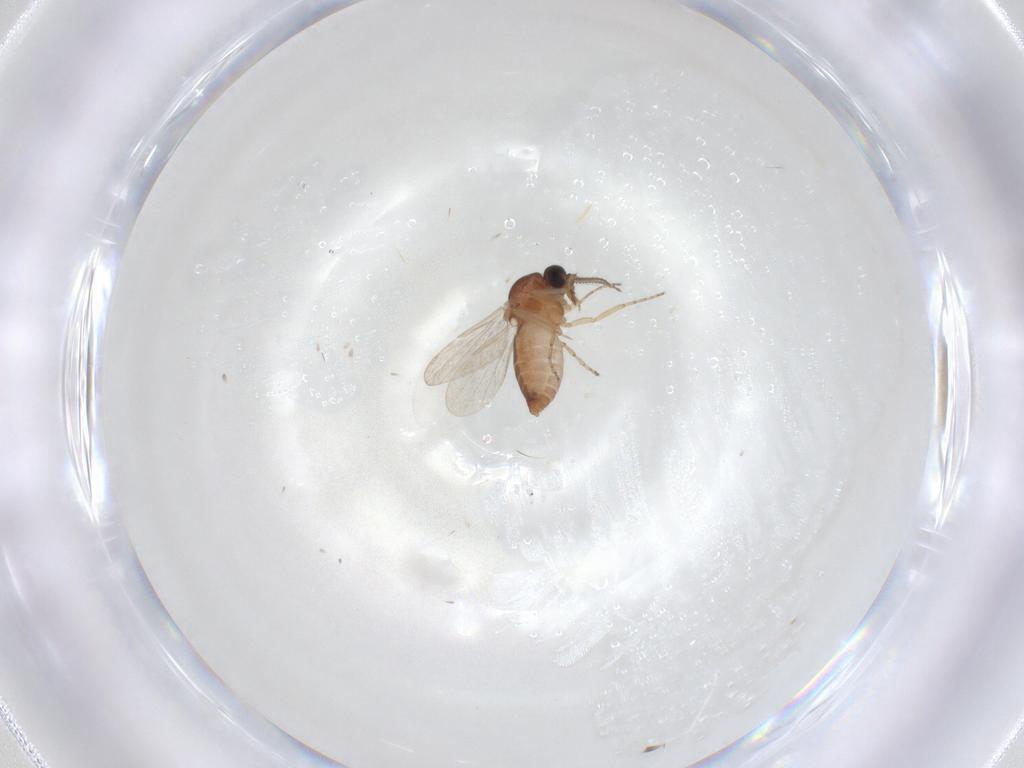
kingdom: Animalia
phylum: Arthropoda
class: Insecta
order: Diptera
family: Ceratopogonidae
